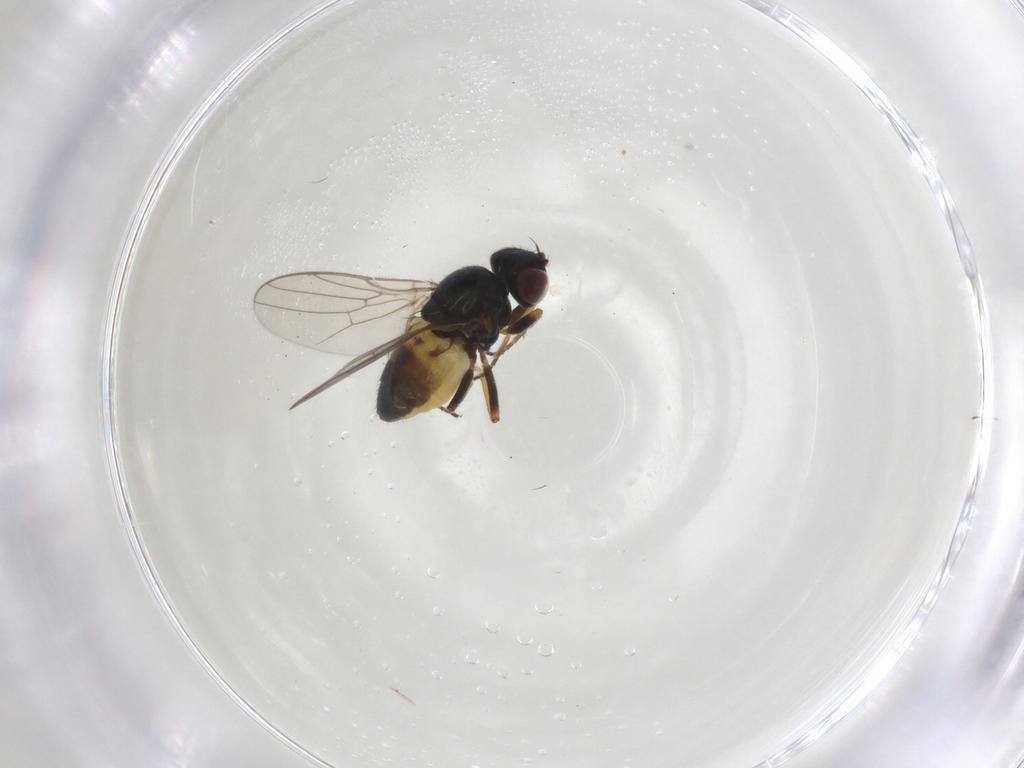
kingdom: Animalia
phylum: Arthropoda
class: Insecta
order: Diptera
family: Chloropidae
